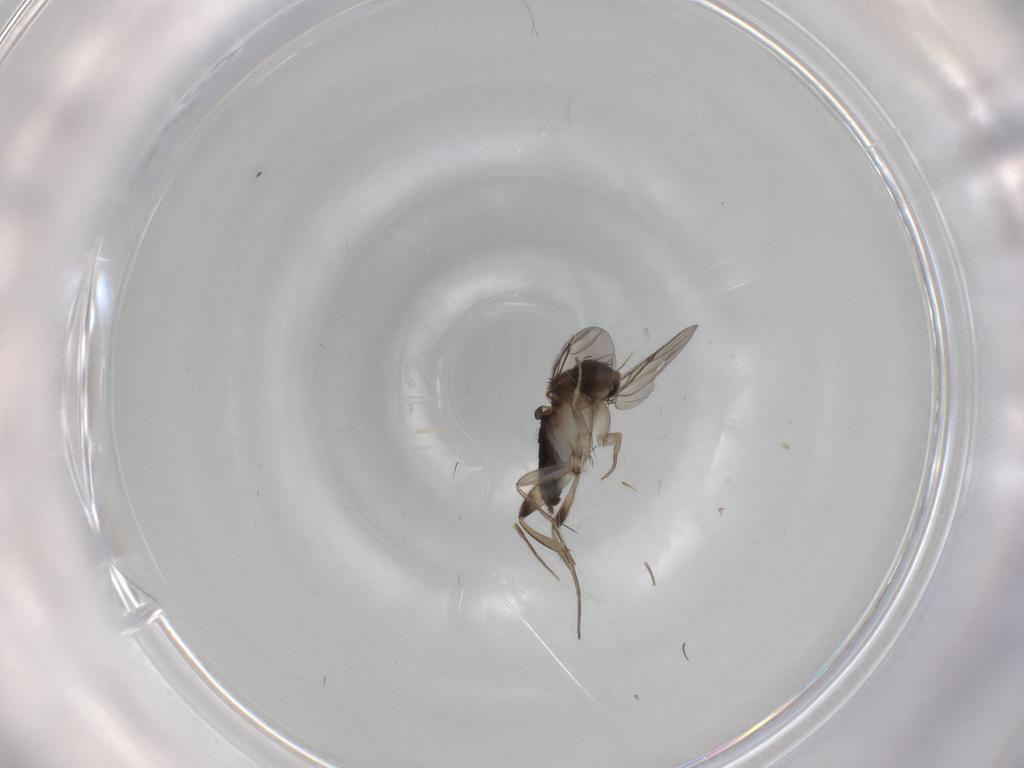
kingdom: Animalia
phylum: Arthropoda
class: Insecta
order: Diptera
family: Phoridae
